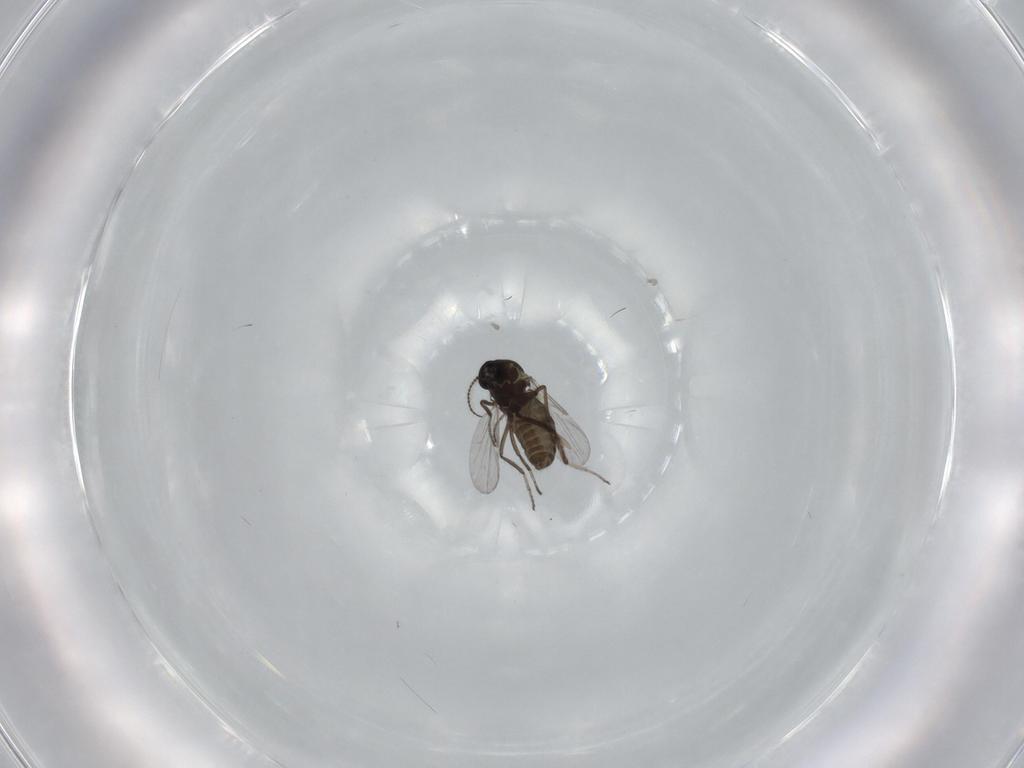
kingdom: Animalia
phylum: Arthropoda
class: Insecta
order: Diptera
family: Ceratopogonidae
